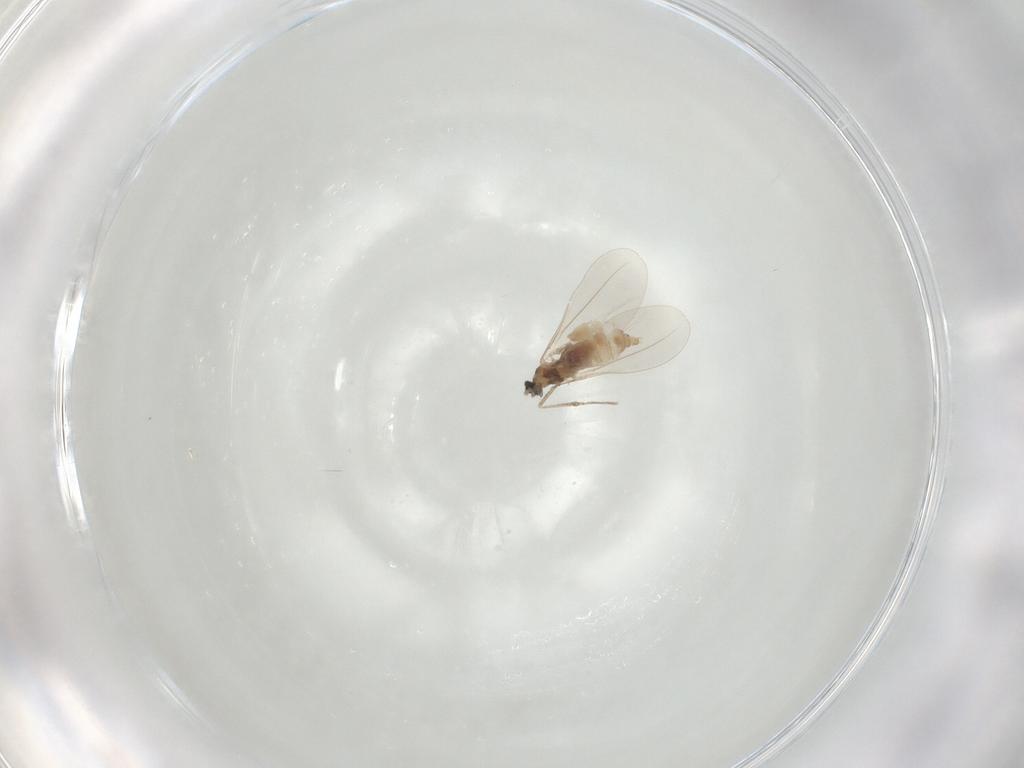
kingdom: Animalia
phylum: Arthropoda
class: Insecta
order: Diptera
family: Cecidomyiidae
